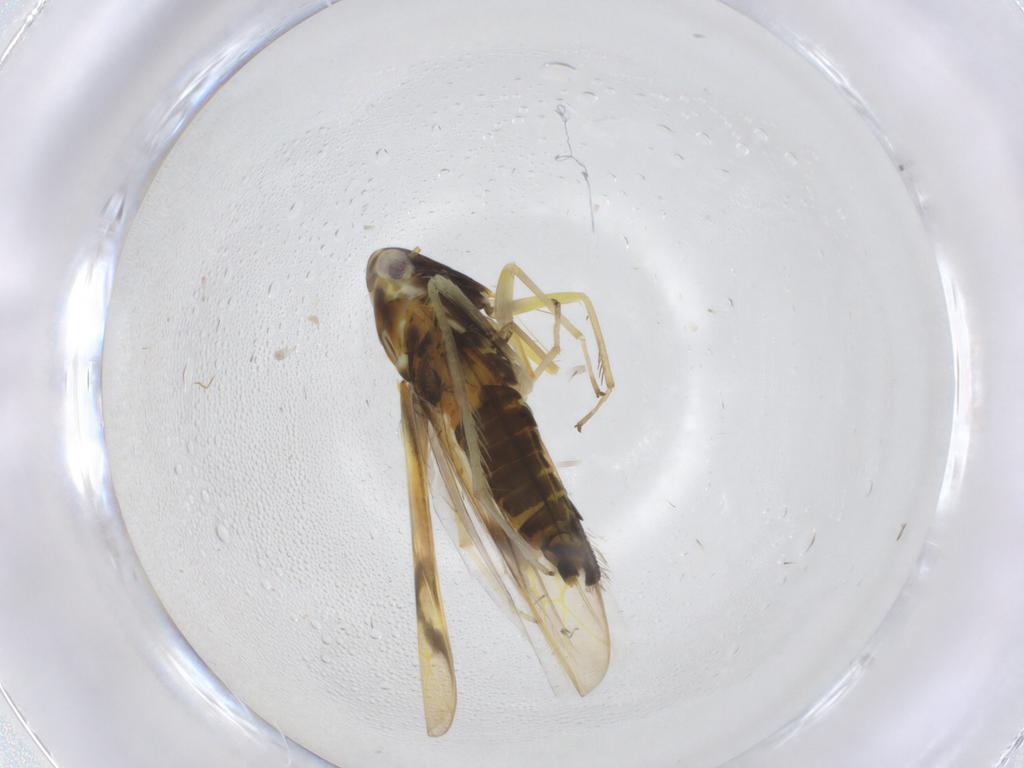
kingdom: Animalia
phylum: Arthropoda
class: Insecta
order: Hemiptera
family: Cicadellidae
